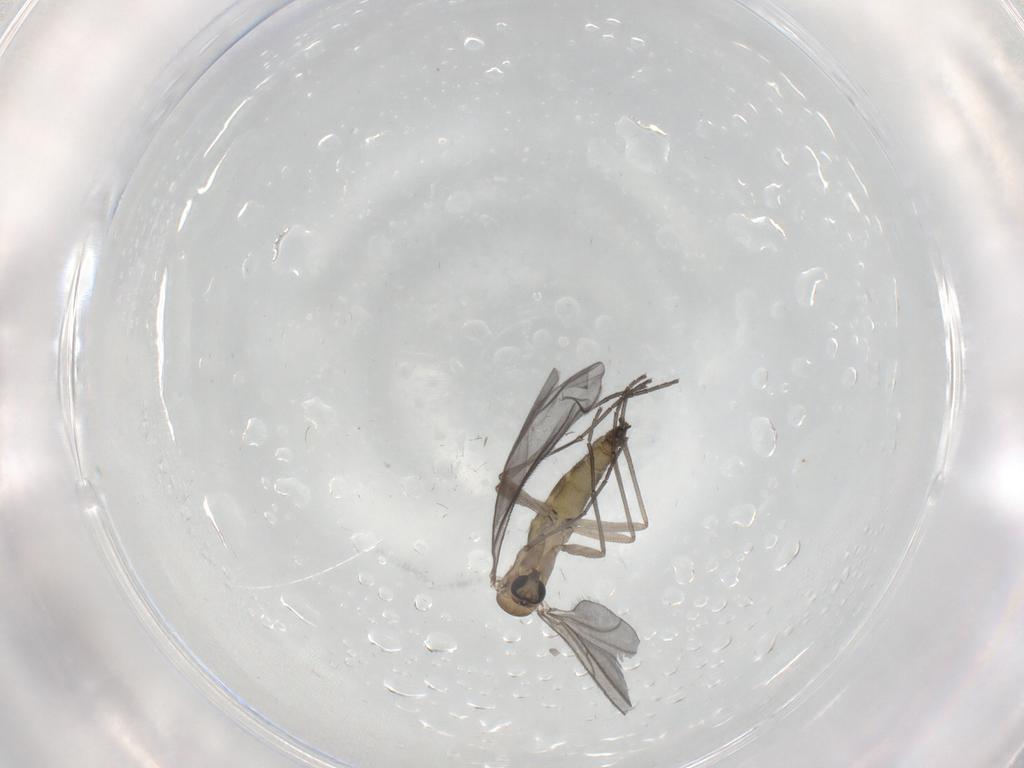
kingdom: Animalia
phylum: Arthropoda
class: Insecta
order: Diptera
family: Sciaridae
